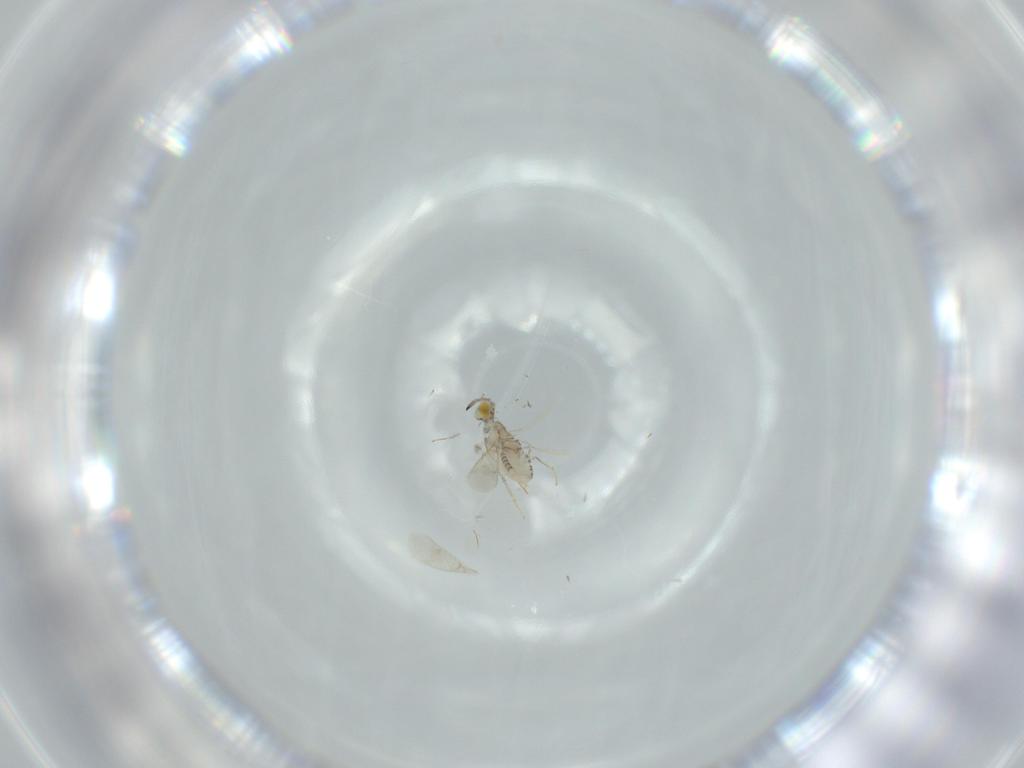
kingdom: Animalia
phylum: Arthropoda
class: Insecta
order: Hymenoptera
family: Aphelinidae
